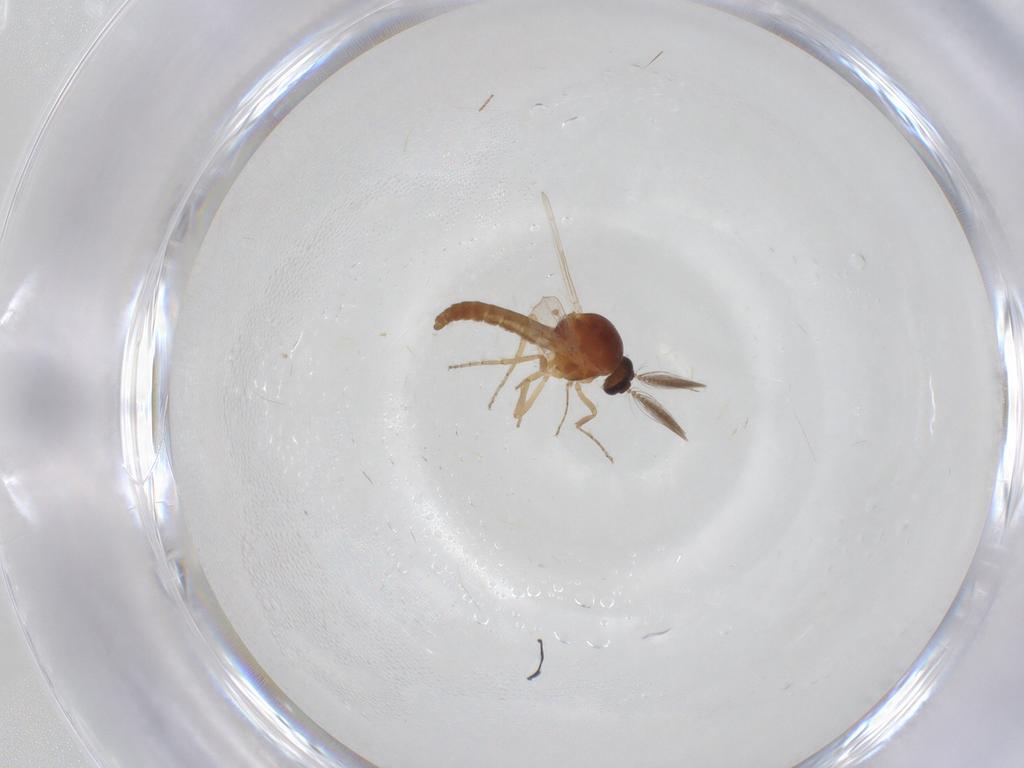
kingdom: Animalia
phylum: Arthropoda
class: Insecta
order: Diptera
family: Ceratopogonidae
